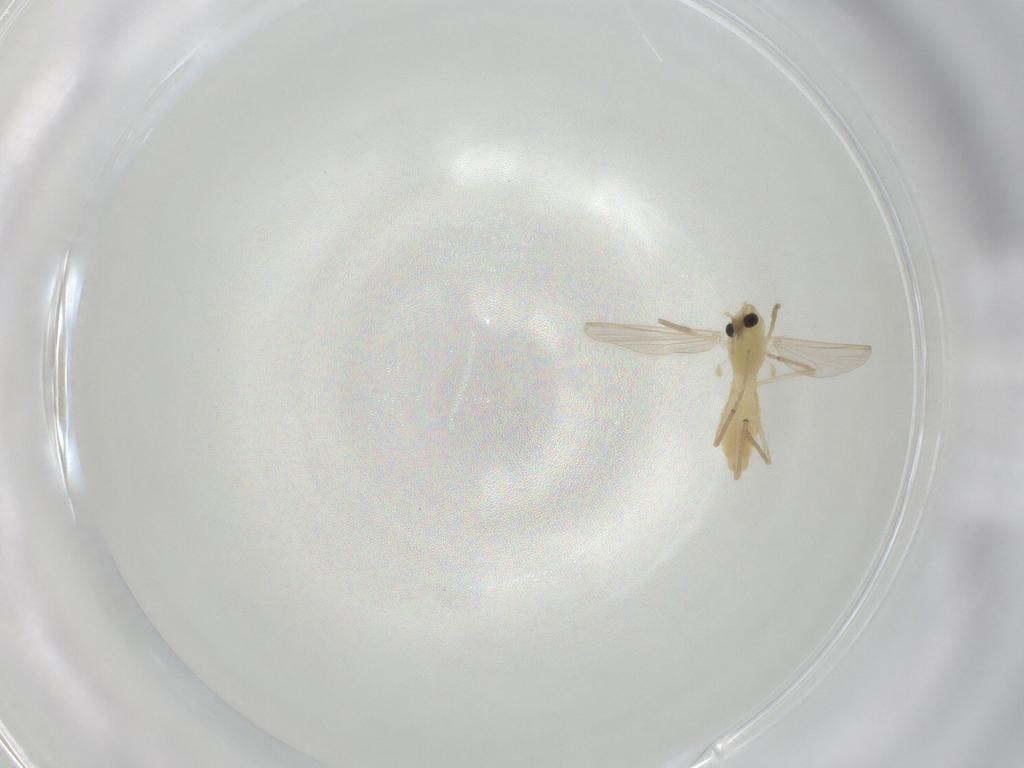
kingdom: Animalia
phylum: Arthropoda
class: Insecta
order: Diptera
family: Chironomidae
